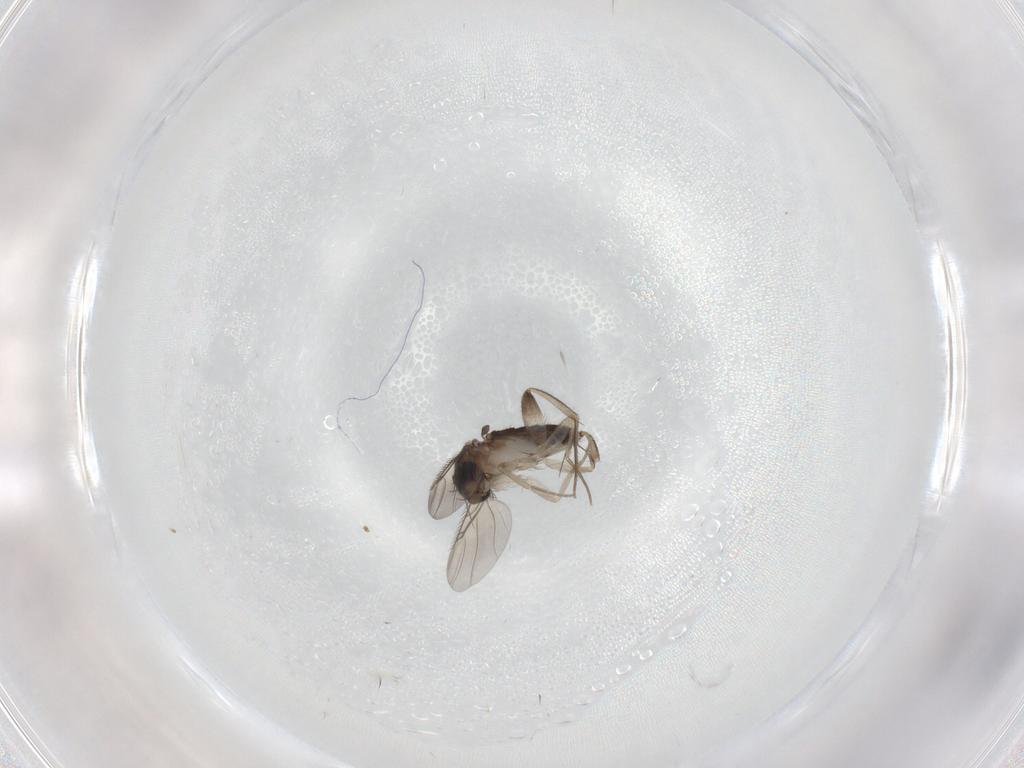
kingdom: Animalia
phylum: Arthropoda
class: Insecta
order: Diptera
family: Phoridae
